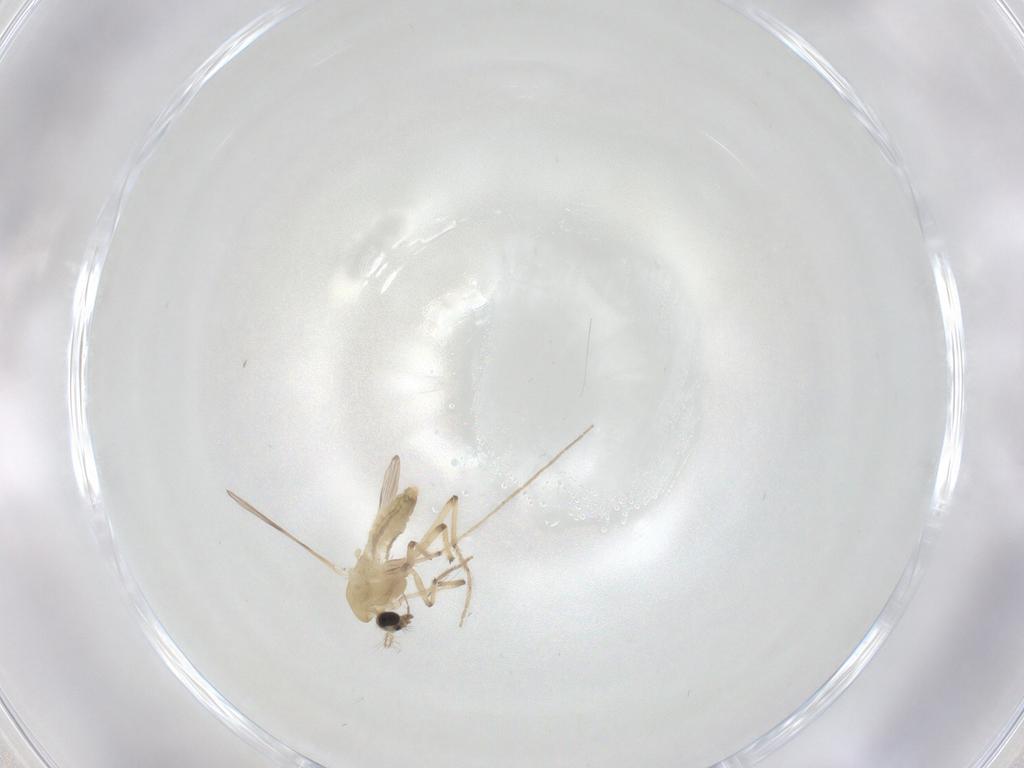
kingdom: Animalia
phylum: Arthropoda
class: Insecta
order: Diptera
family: Chironomidae
